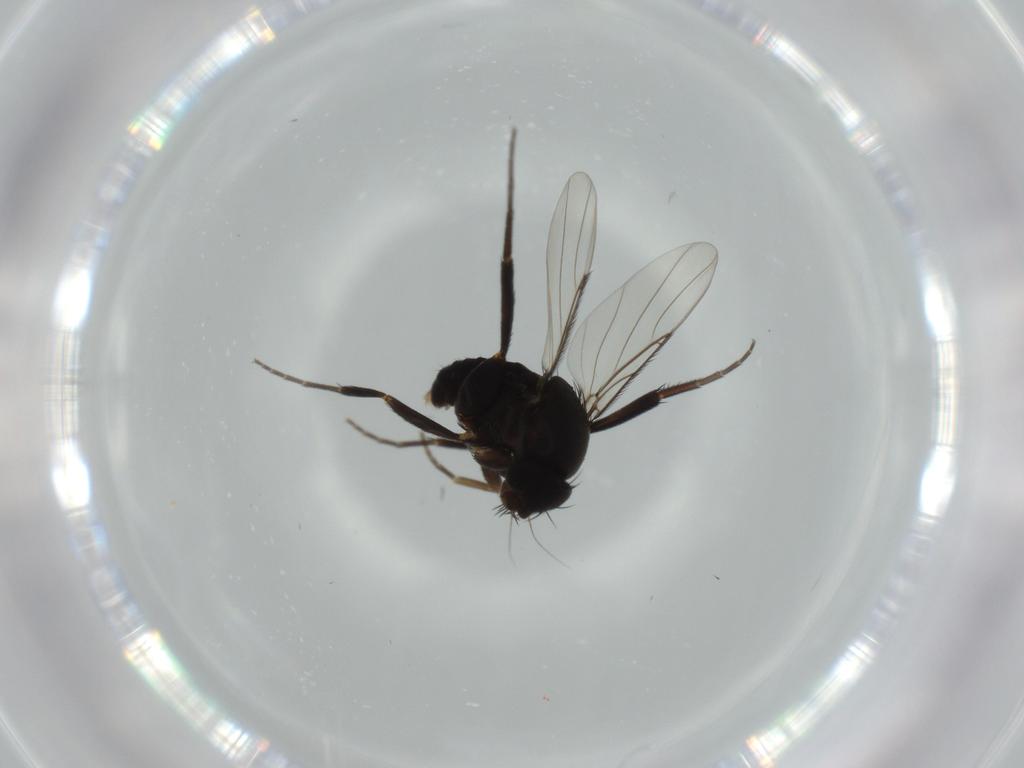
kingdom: Animalia
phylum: Arthropoda
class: Insecta
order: Diptera
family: Phoridae
